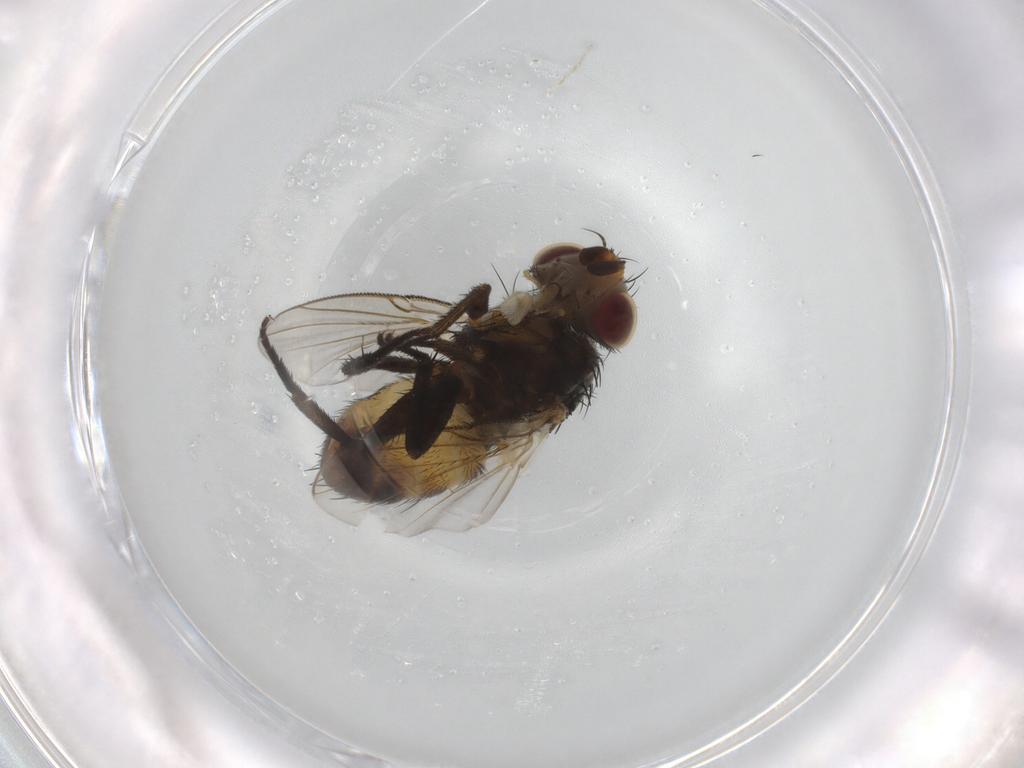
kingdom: Animalia
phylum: Arthropoda
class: Insecta
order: Diptera
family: Tachinidae
